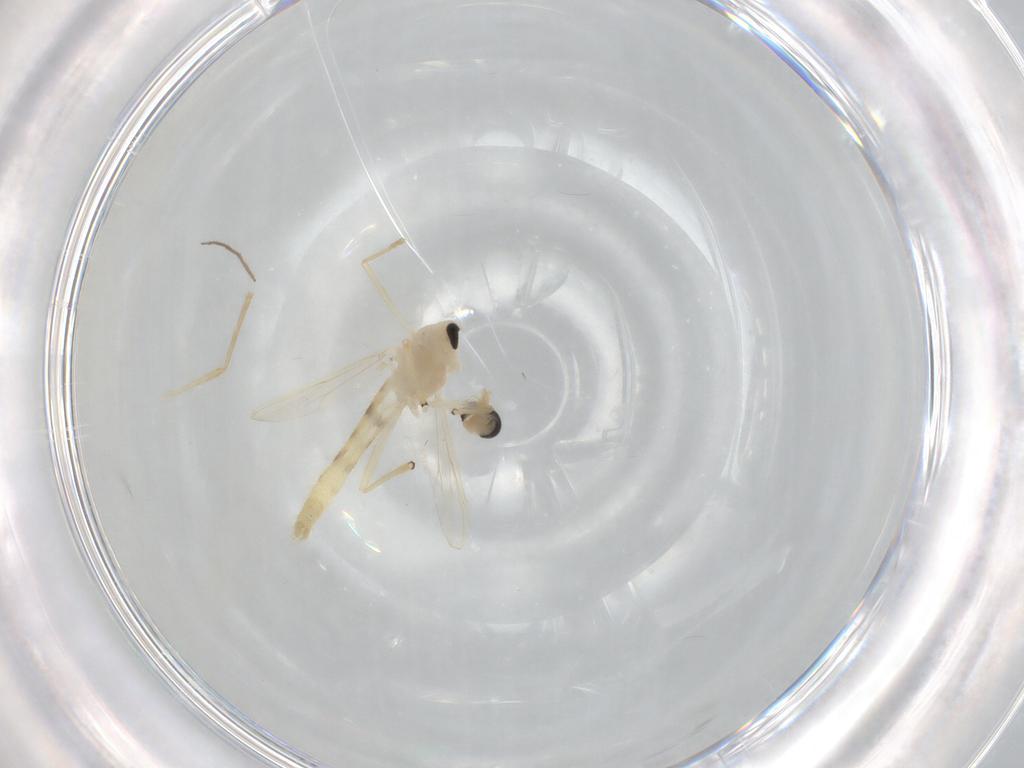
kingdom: Animalia
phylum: Arthropoda
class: Insecta
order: Diptera
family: Chironomidae
